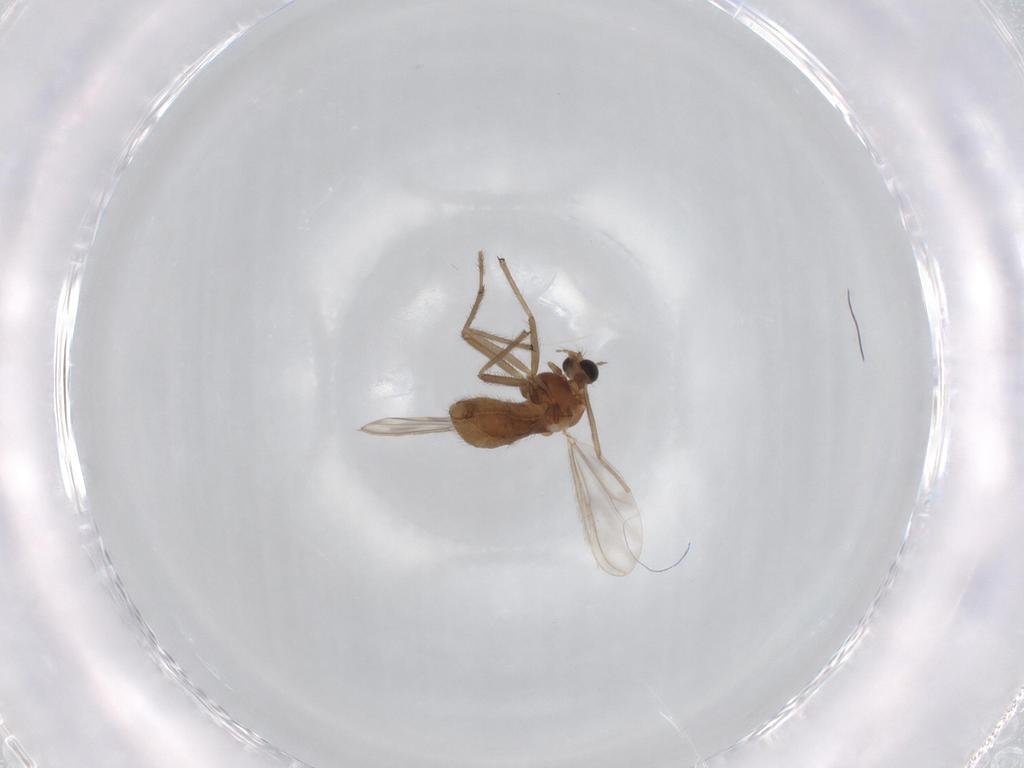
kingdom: Animalia
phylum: Arthropoda
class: Insecta
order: Diptera
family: Chironomidae
